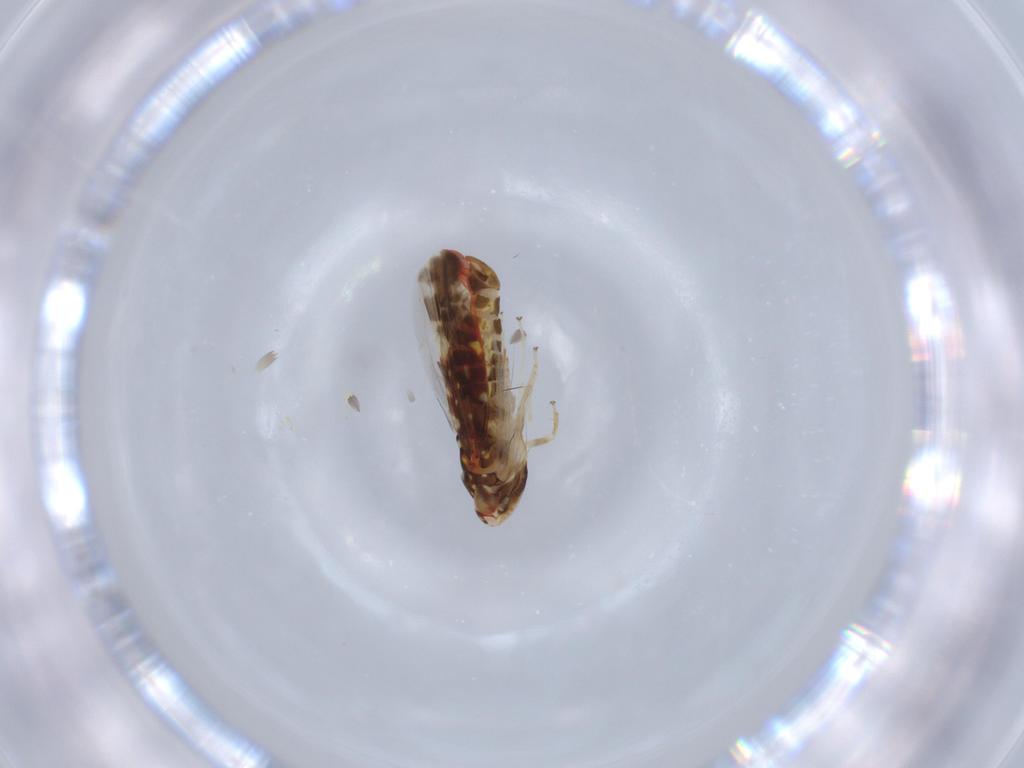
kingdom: Animalia
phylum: Arthropoda
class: Insecta
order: Hemiptera
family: Cicadellidae
